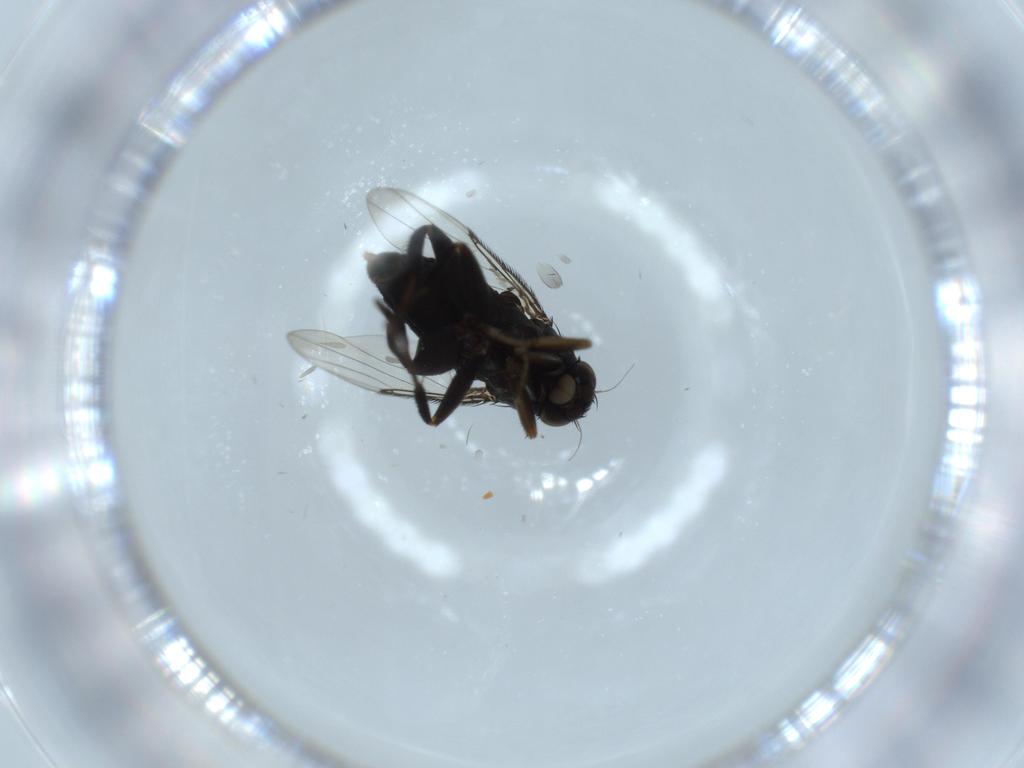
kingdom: Animalia
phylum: Arthropoda
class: Insecta
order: Diptera
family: Phoridae
